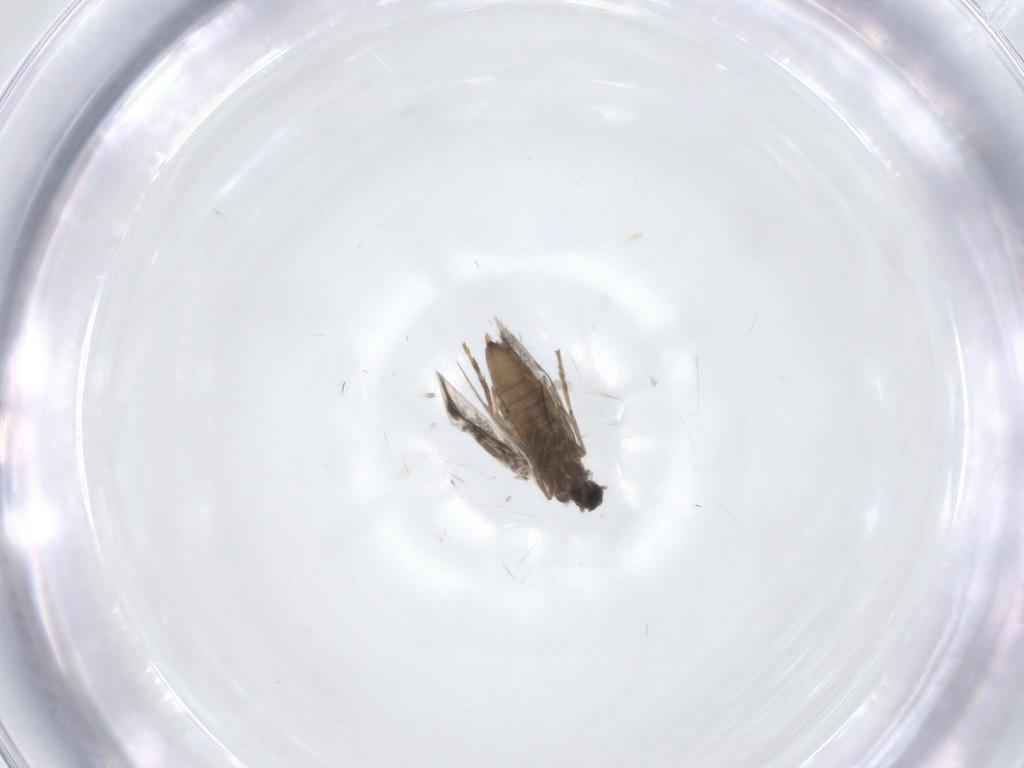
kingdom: Animalia
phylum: Arthropoda
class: Insecta
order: Lepidoptera
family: Heliozelidae
